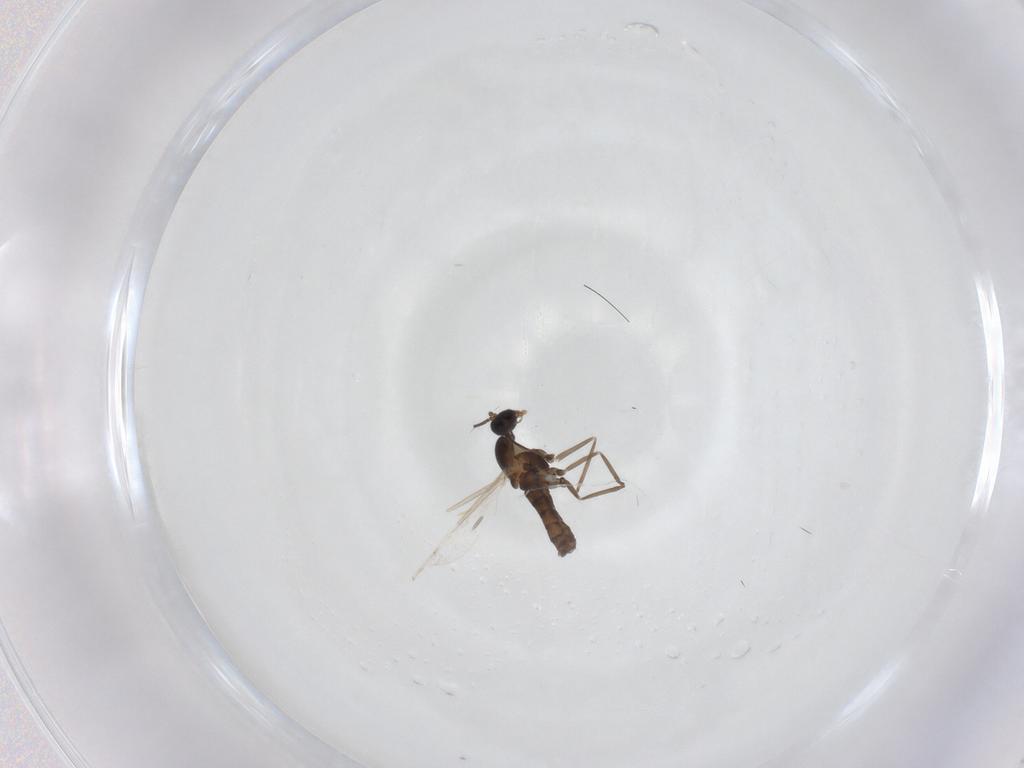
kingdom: Animalia
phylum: Arthropoda
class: Insecta
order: Diptera
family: Cecidomyiidae
